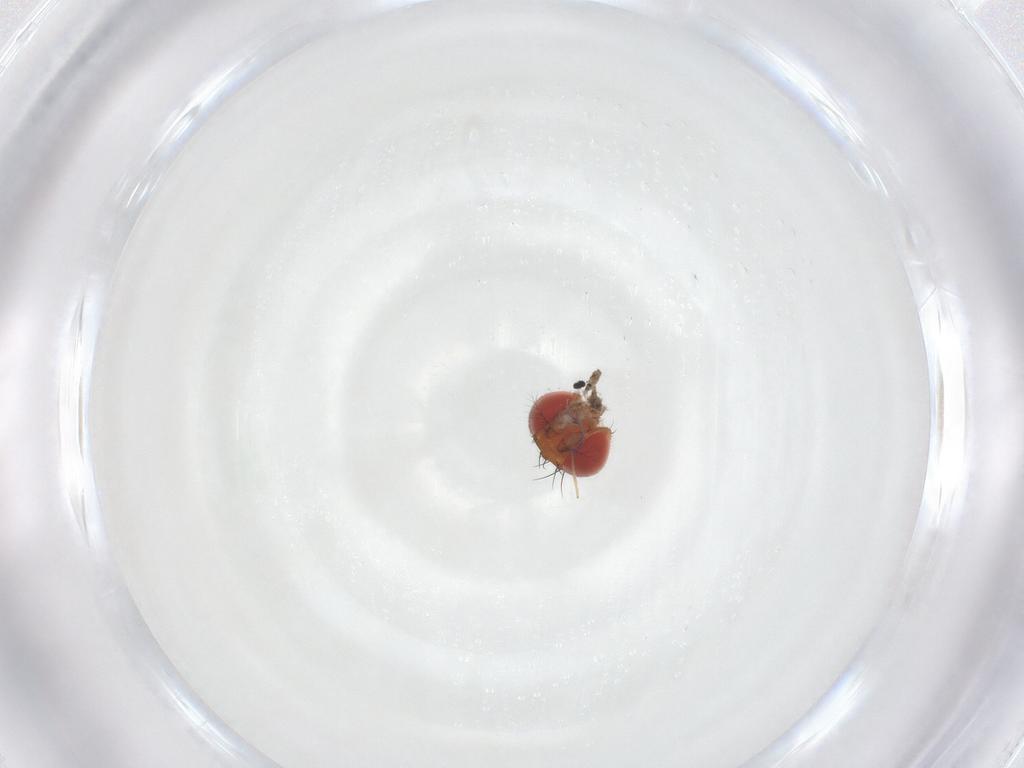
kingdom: Animalia
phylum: Arthropoda
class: Insecta
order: Diptera
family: Drosophilidae
